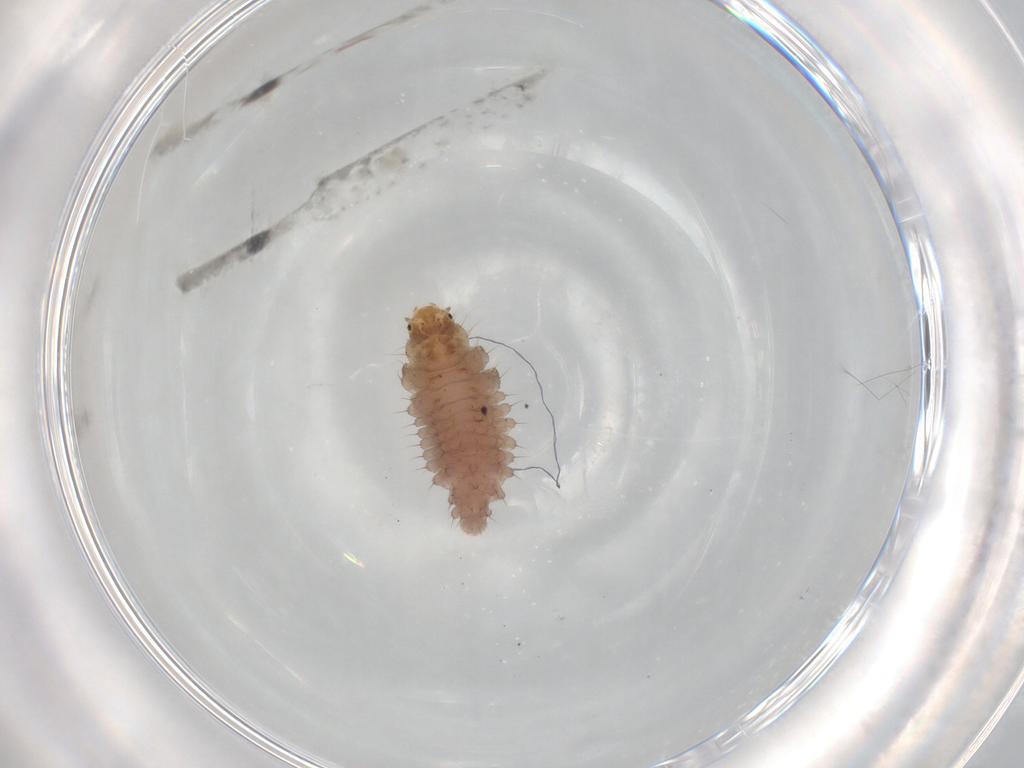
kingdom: Animalia
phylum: Arthropoda
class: Insecta
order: Coleoptera
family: Coccinellidae
